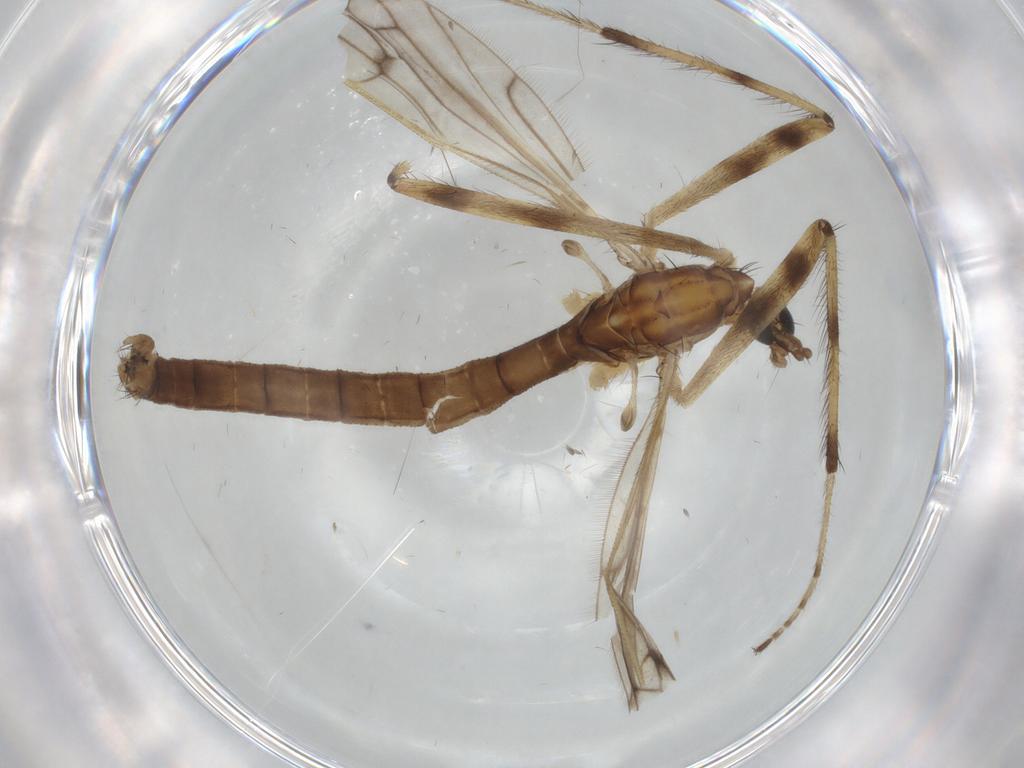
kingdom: Animalia
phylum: Arthropoda
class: Insecta
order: Diptera
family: Limoniidae
